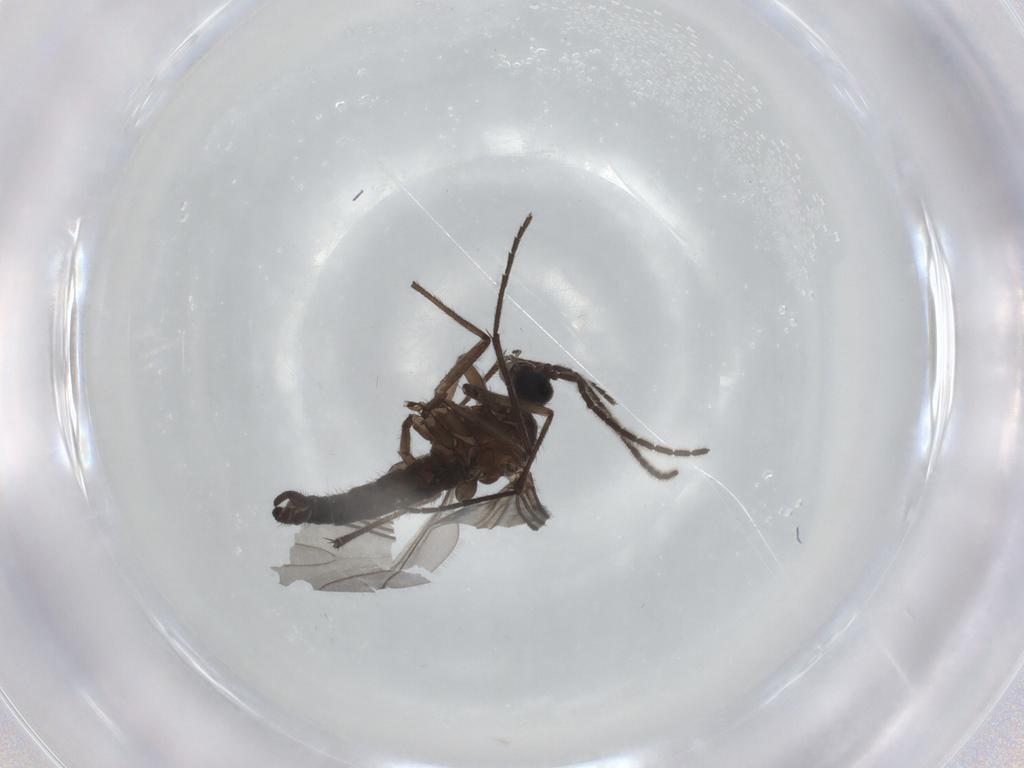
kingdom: Animalia
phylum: Arthropoda
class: Insecta
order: Diptera
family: Sciaridae
